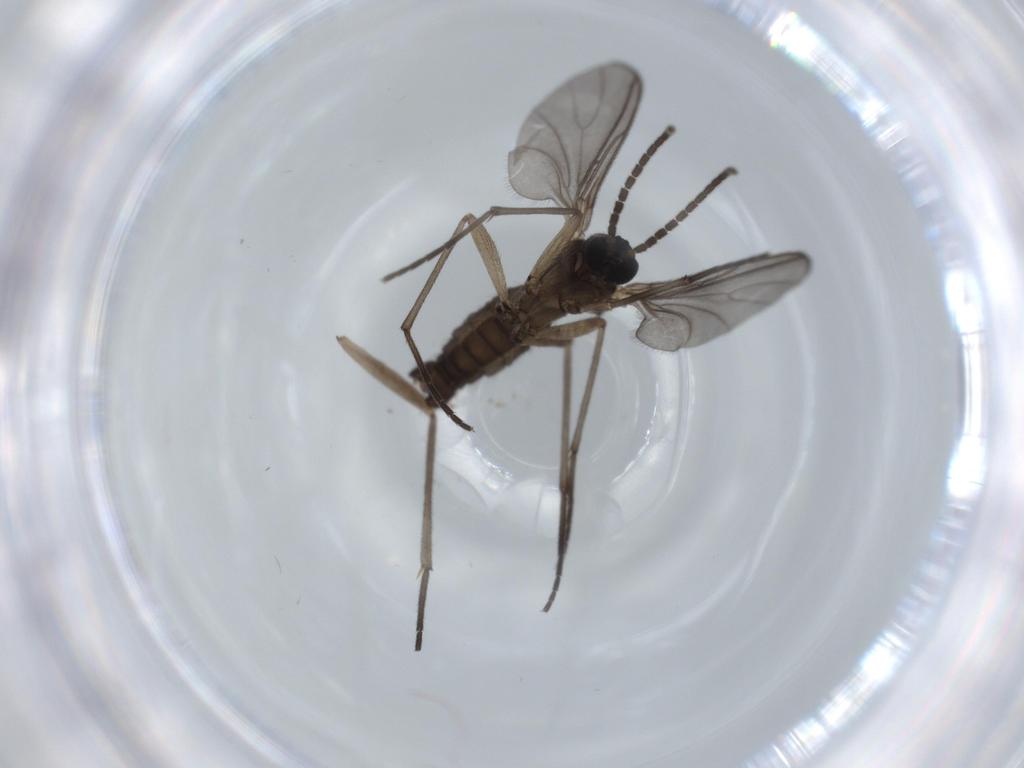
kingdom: Animalia
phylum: Arthropoda
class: Insecta
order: Diptera
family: Sciaridae
